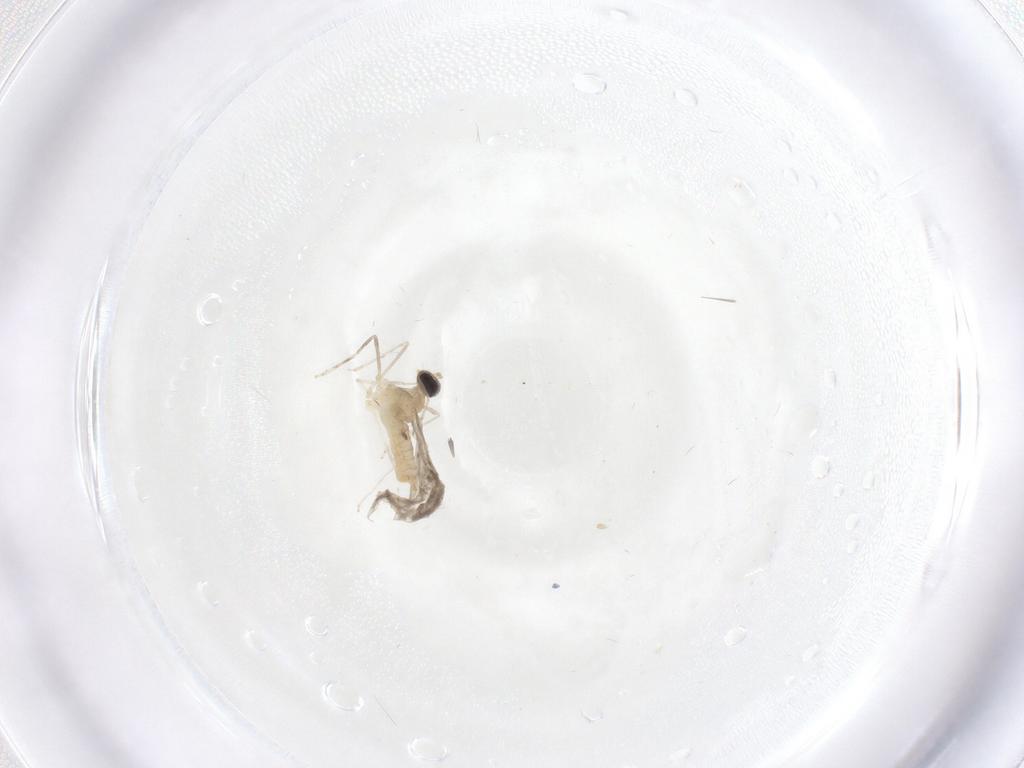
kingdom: Animalia
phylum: Arthropoda
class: Insecta
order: Diptera
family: Cecidomyiidae
